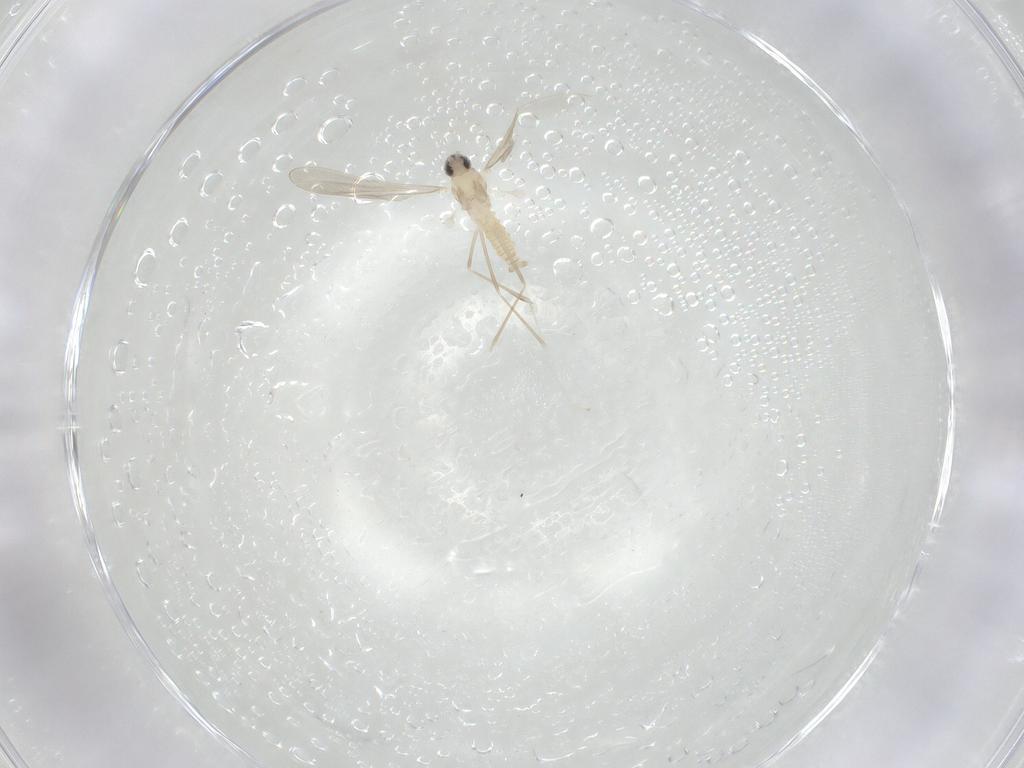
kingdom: Animalia
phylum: Arthropoda
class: Insecta
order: Diptera
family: Cecidomyiidae
